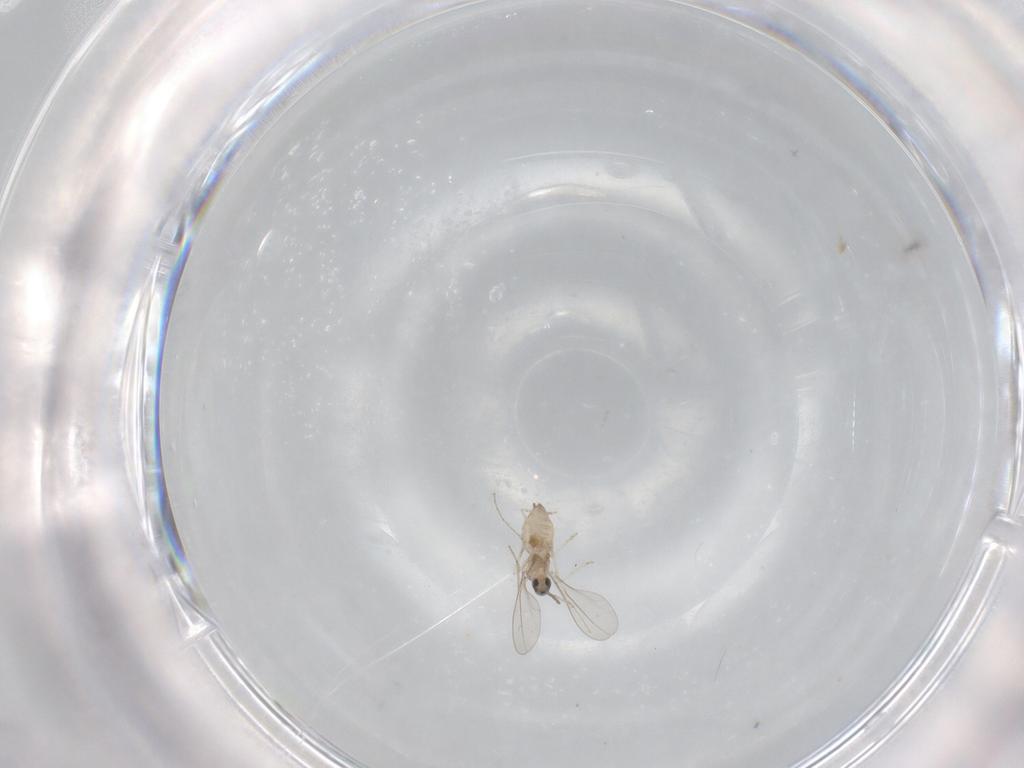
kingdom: Animalia
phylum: Arthropoda
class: Insecta
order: Diptera
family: Cecidomyiidae
